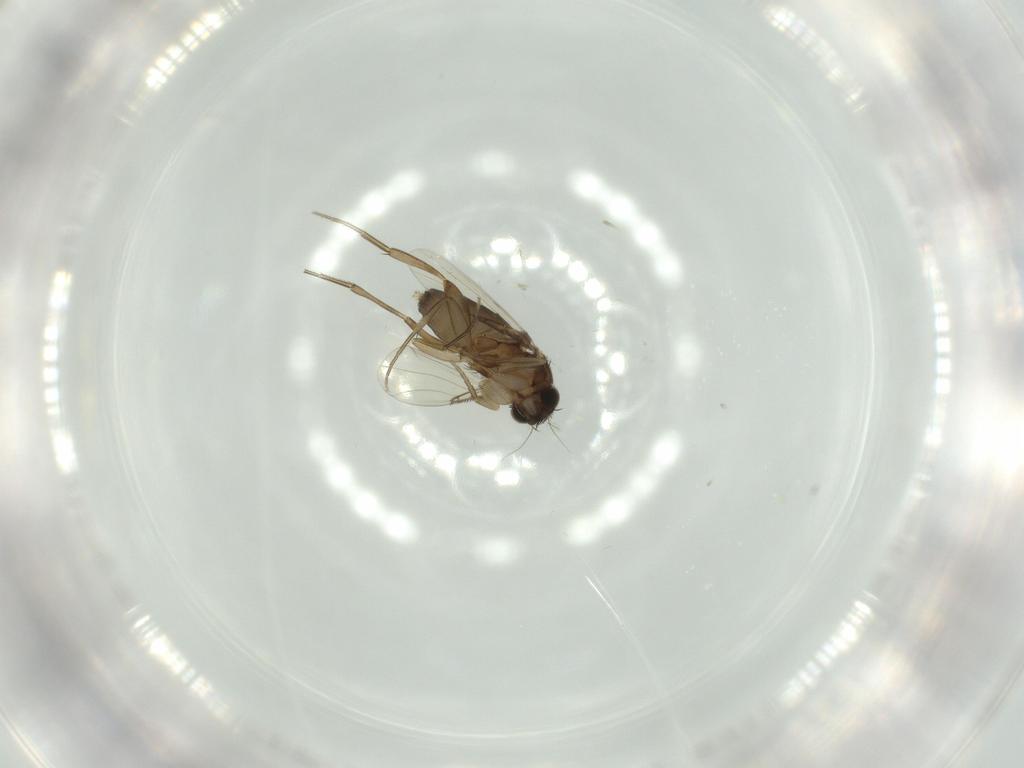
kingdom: Animalia
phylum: Arthropoda
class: Insecta
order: Diptera
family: Phoridae
